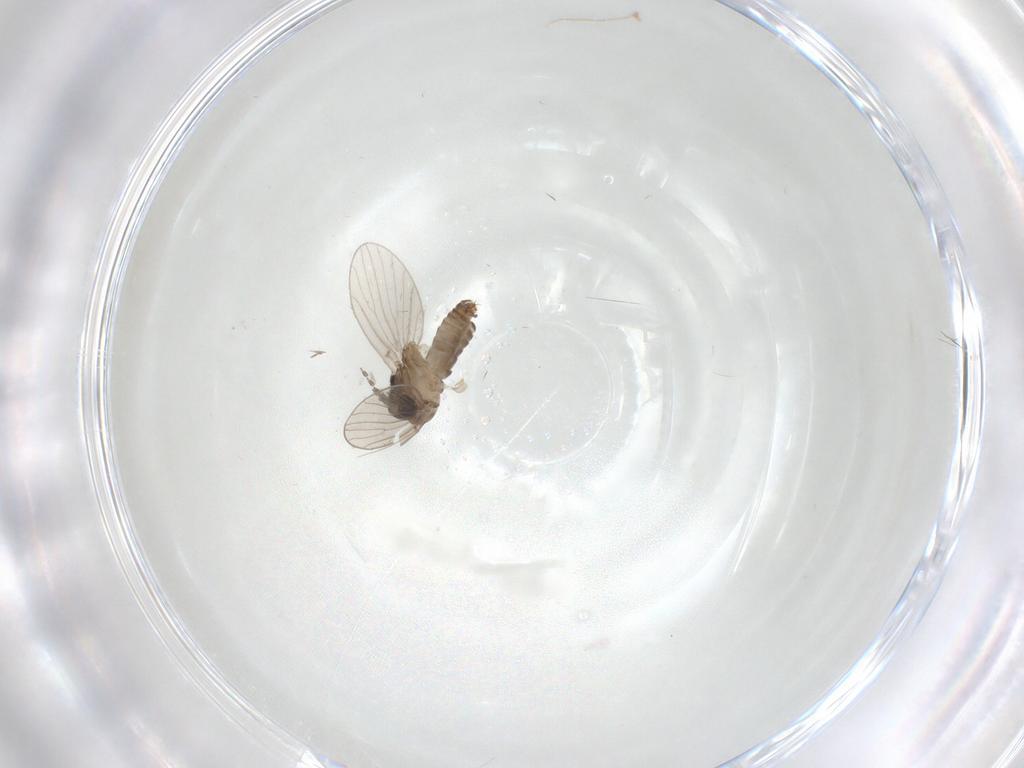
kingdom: Animalia
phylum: Arthropoda
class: Insecta
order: Diptera
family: Psychodidae
